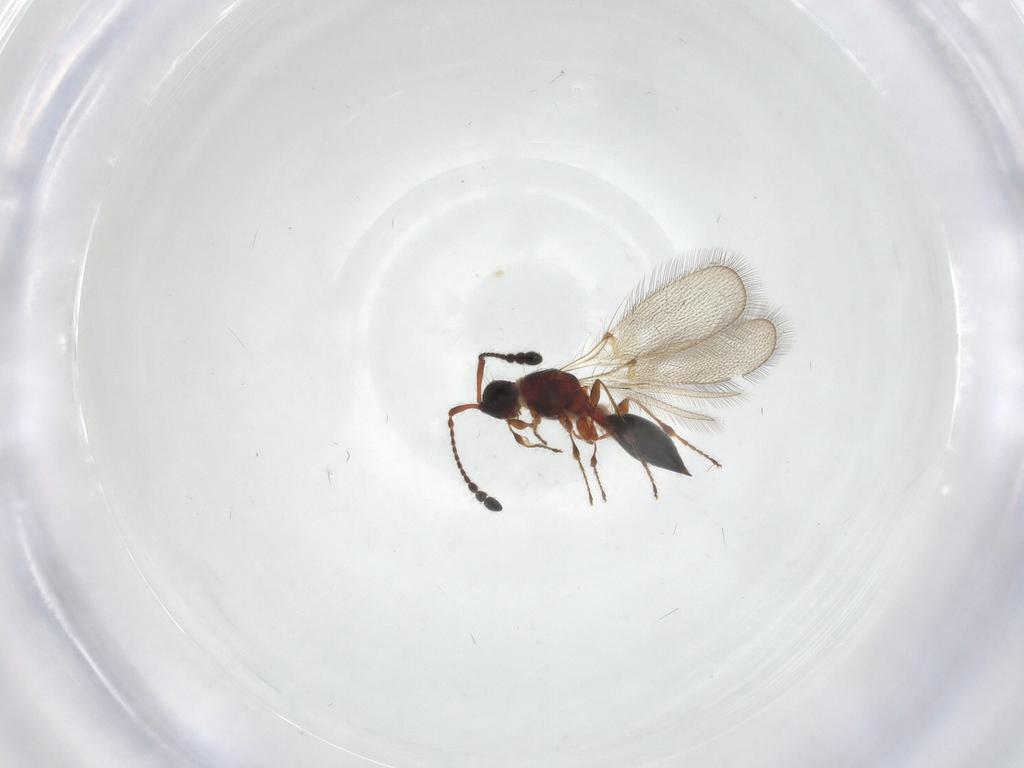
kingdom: Animalia
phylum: Arthropoda
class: Insecta
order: Hymenoptera
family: Diapriidae
